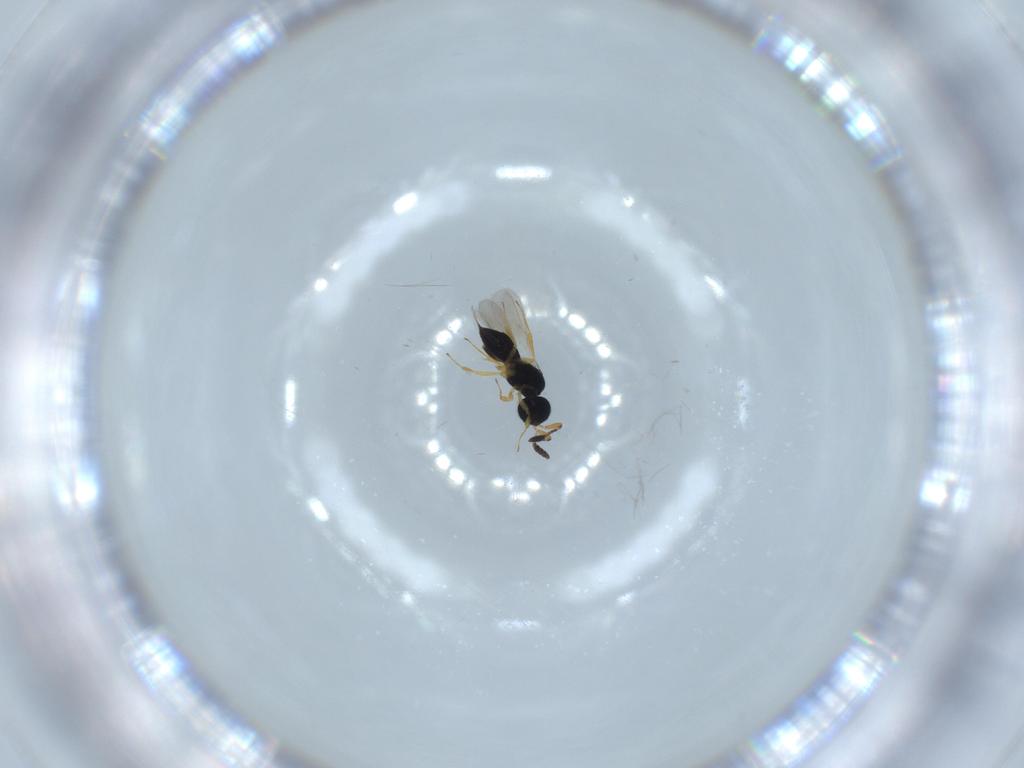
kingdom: Animalia
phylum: Arthropoda
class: Insecta
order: Hymenoptera
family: Scelionidae
